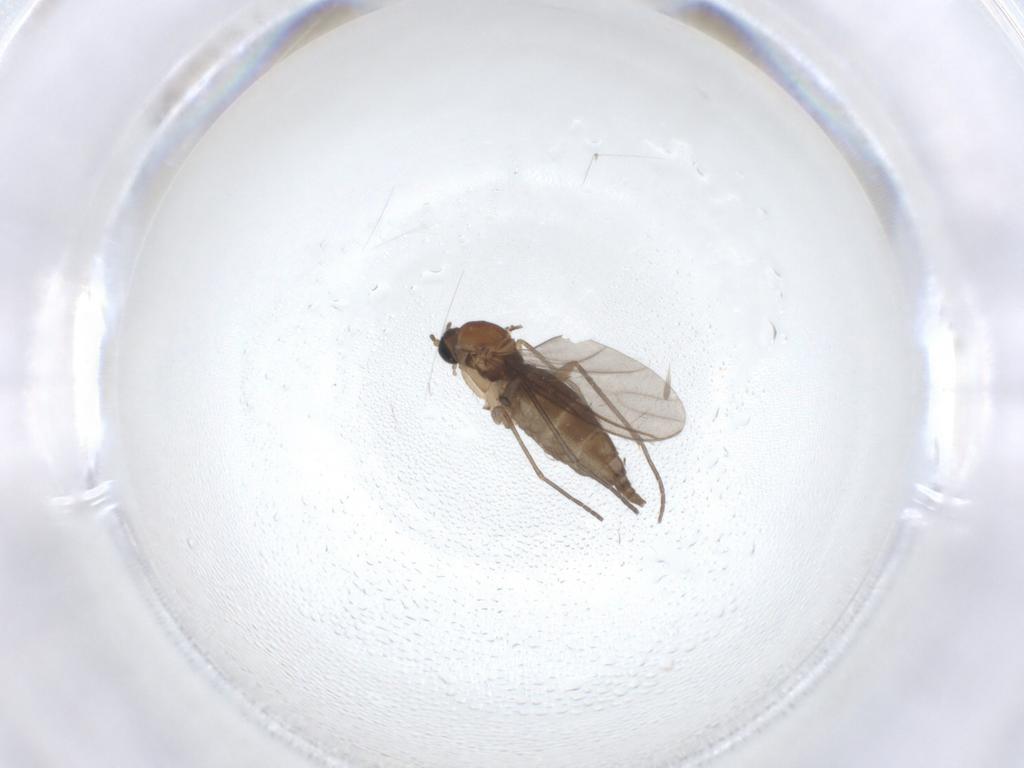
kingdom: Animalia
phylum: Arthropoda
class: Insecta
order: Diptera
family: Sciaridae
